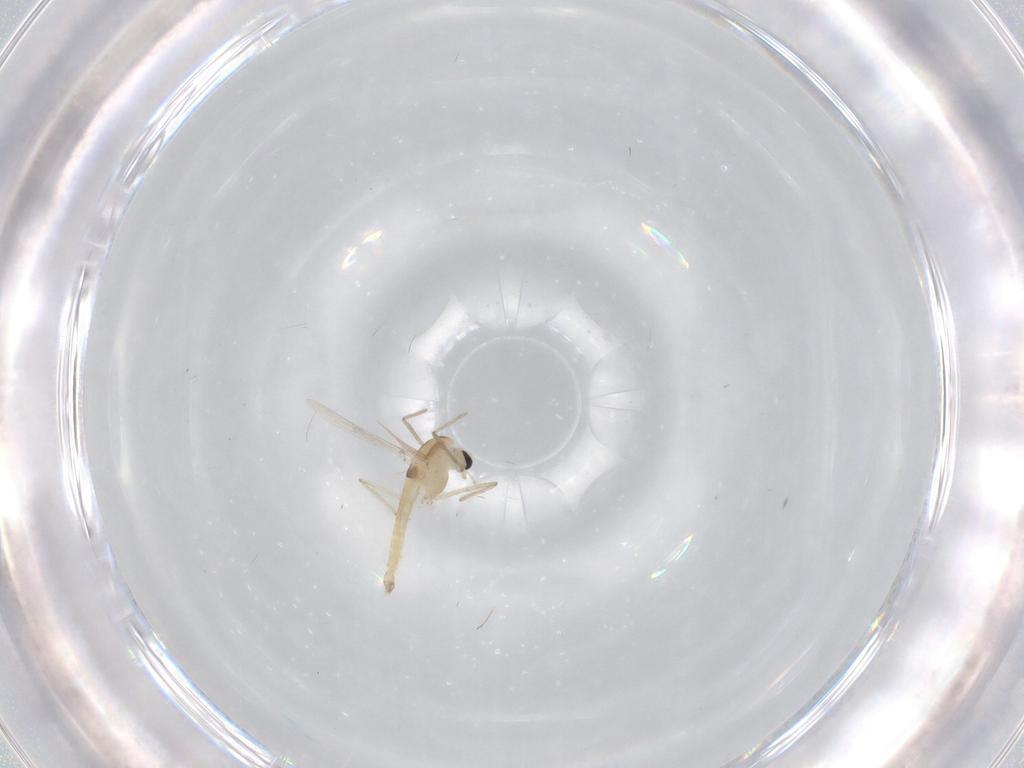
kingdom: Animalia
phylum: Arthropoda
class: Insecta
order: Diptera
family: Chironomidae
